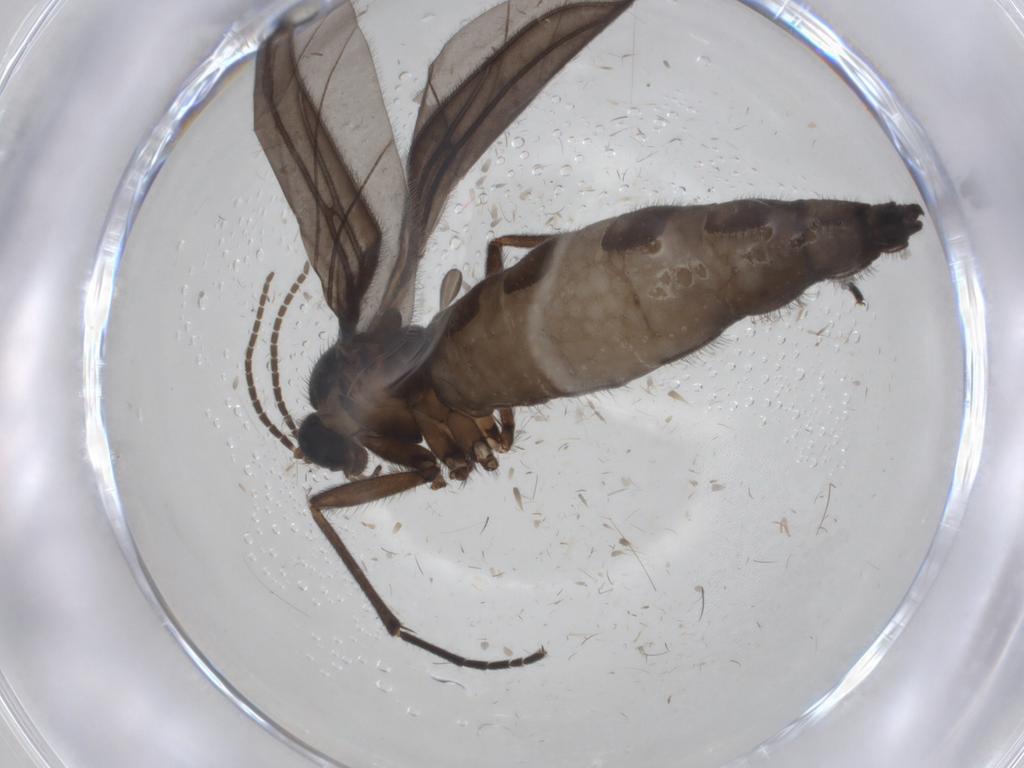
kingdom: Animalia
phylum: Arthropoda
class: Insecta
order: Diptera
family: Sciaridae
